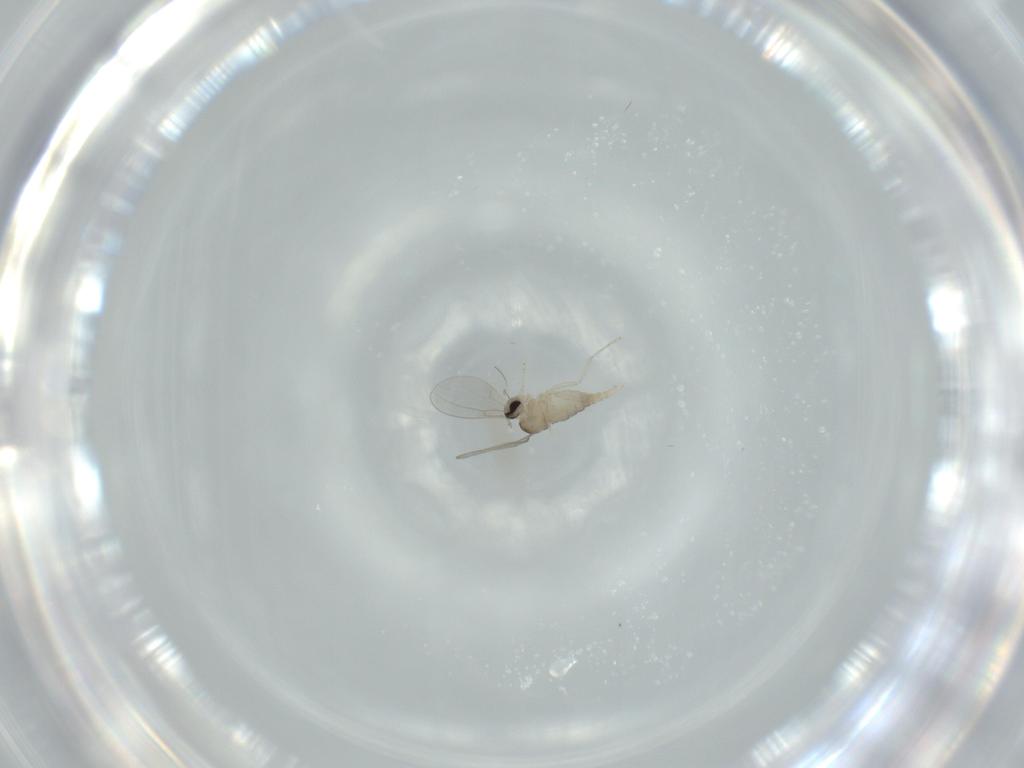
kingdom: Animalia
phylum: Arthropoda
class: Insecta
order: Diptera
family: Cecidomyiidae
